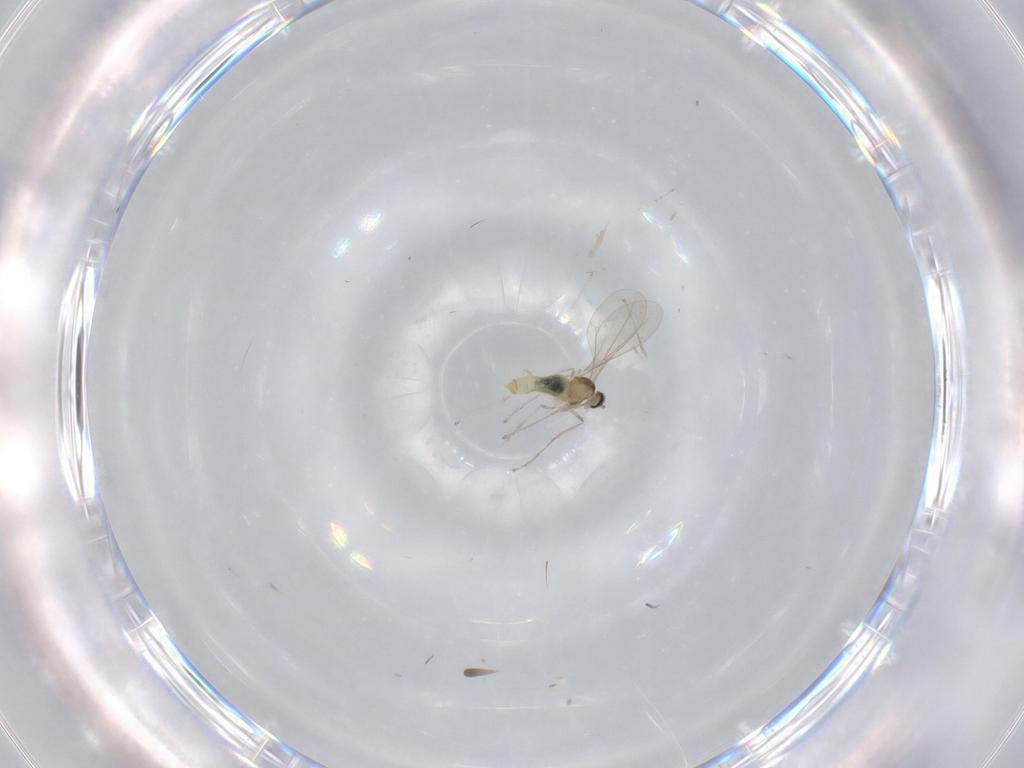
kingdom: Animalia
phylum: Arthropoda
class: Insecta
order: Diptera
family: Cecidomyiidae
